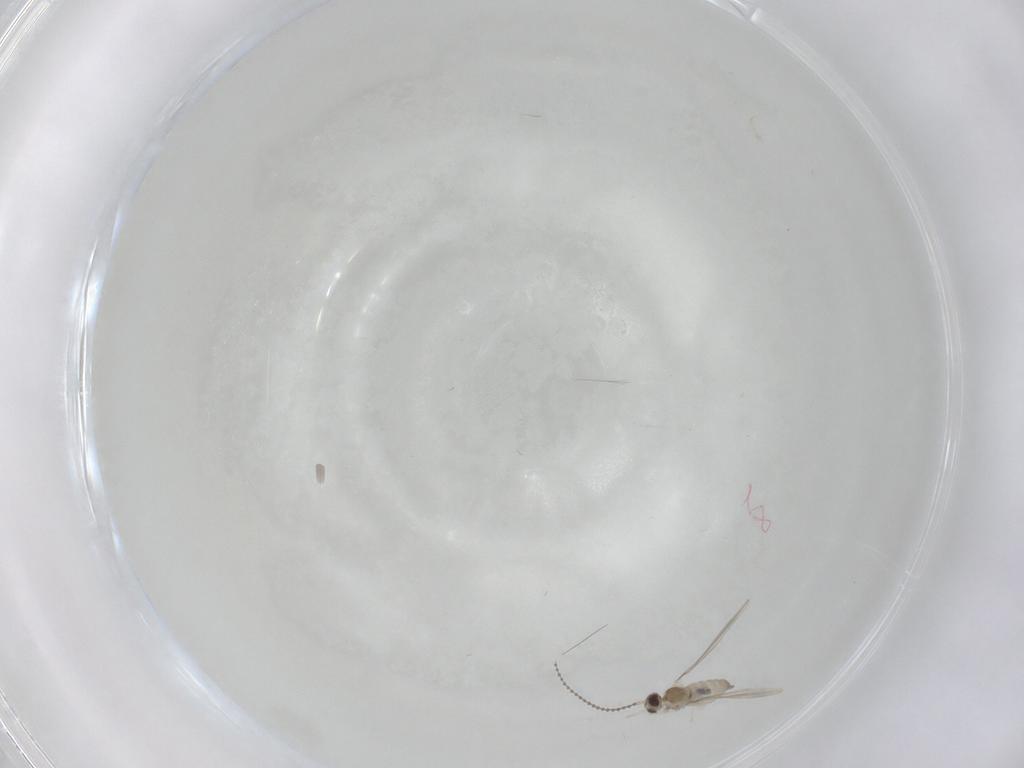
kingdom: Animalia
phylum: Arthropoda
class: Insecta
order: Diptera
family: Cecidomyiidae
